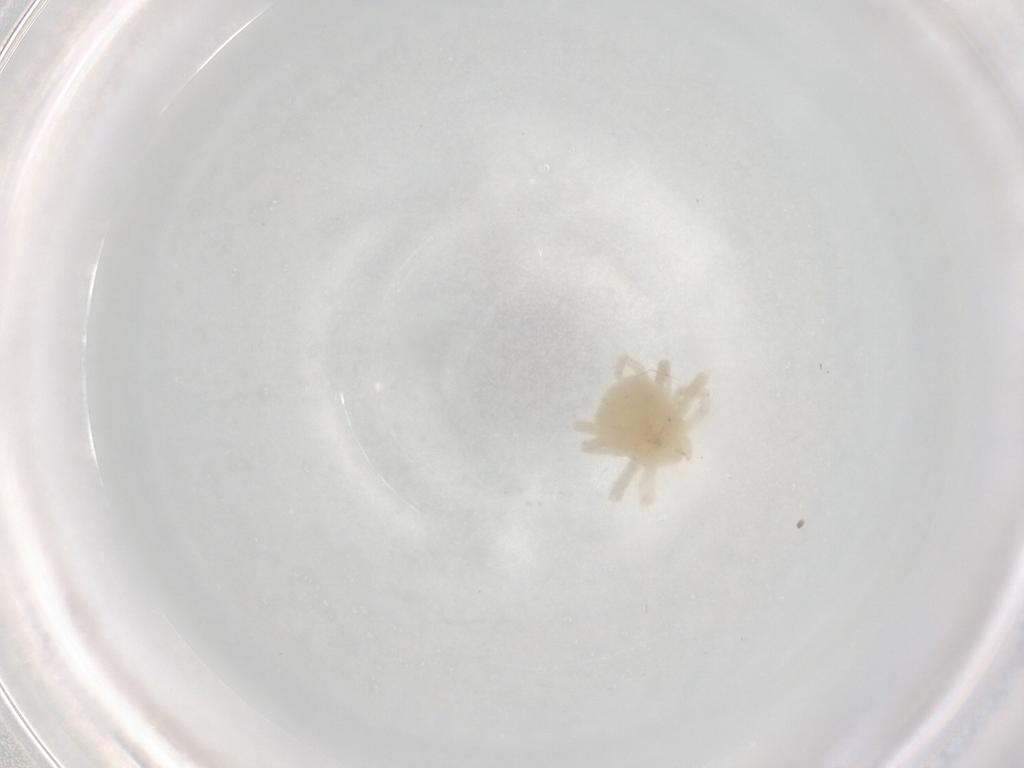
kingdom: Animalia
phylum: Arthropoda
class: Arachnida
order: Trombidiformes
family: Anystidae
